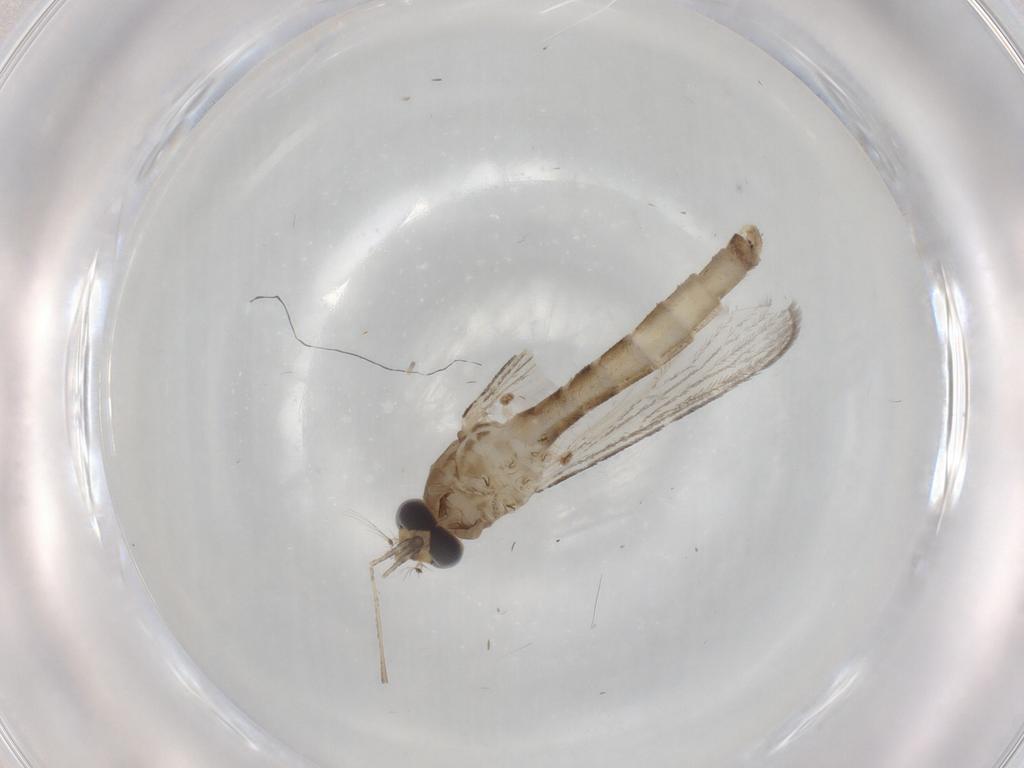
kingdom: Animalia
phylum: Arthropoda
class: Insecta
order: Diptera
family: Culicidae
